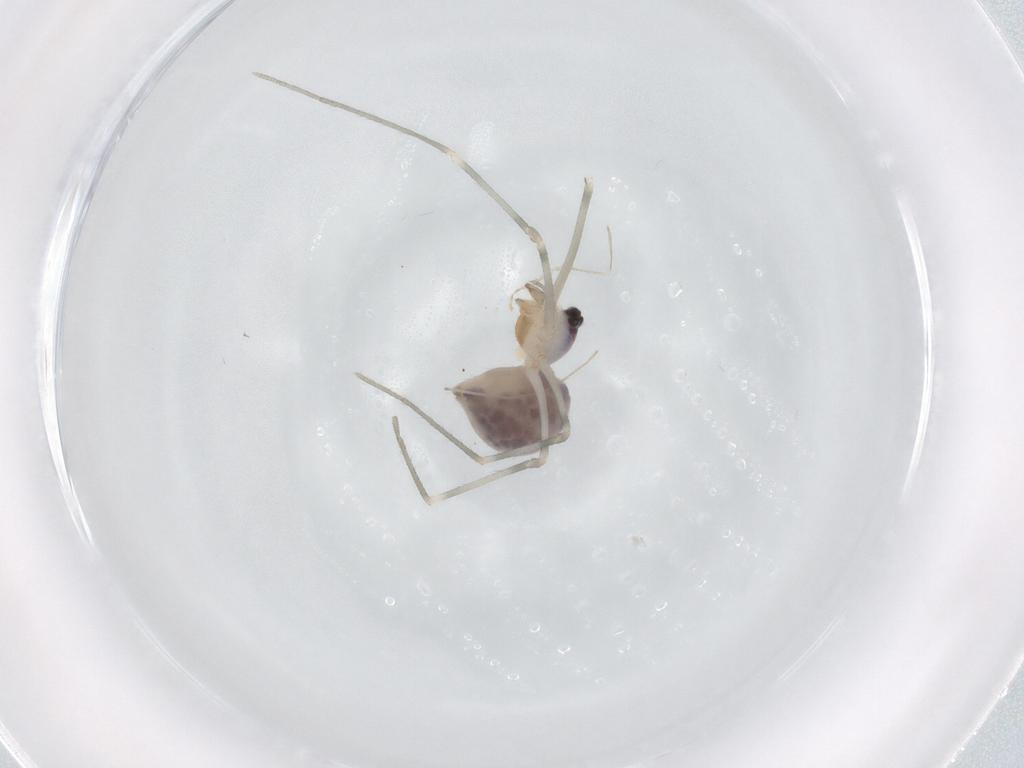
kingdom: Animalia
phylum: Arthropoda
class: Arachnida
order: Araneae
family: Pholcidae
